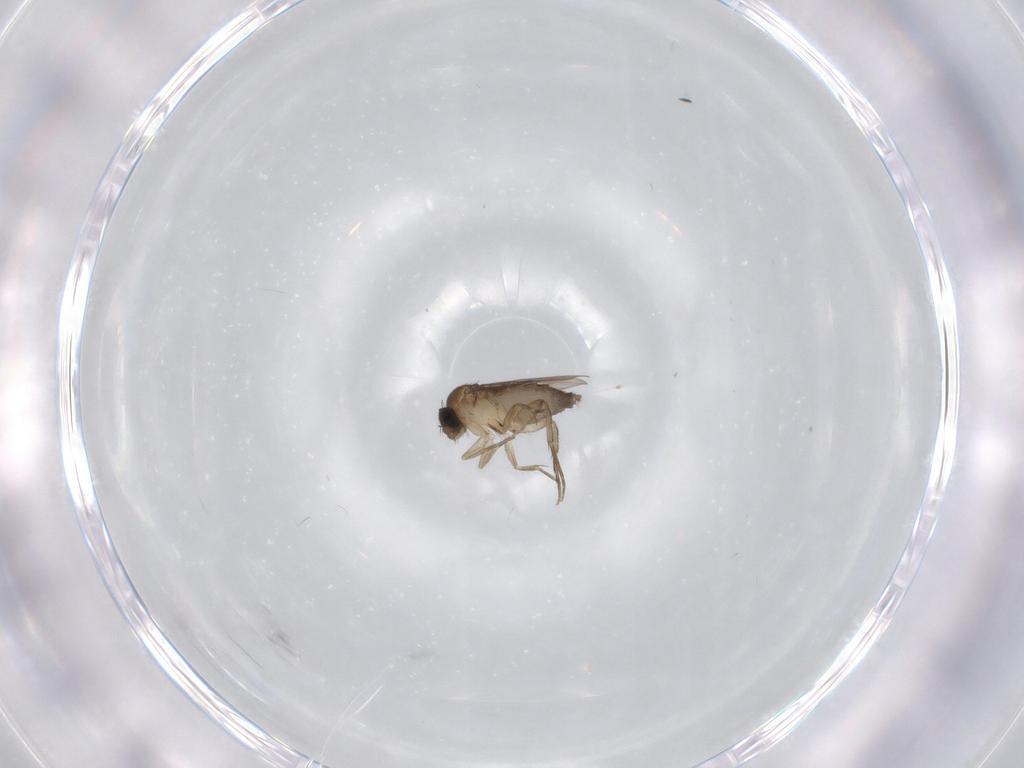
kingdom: Animalia
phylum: Arthropoda
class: Insecta
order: Diptera
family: Phoridae
